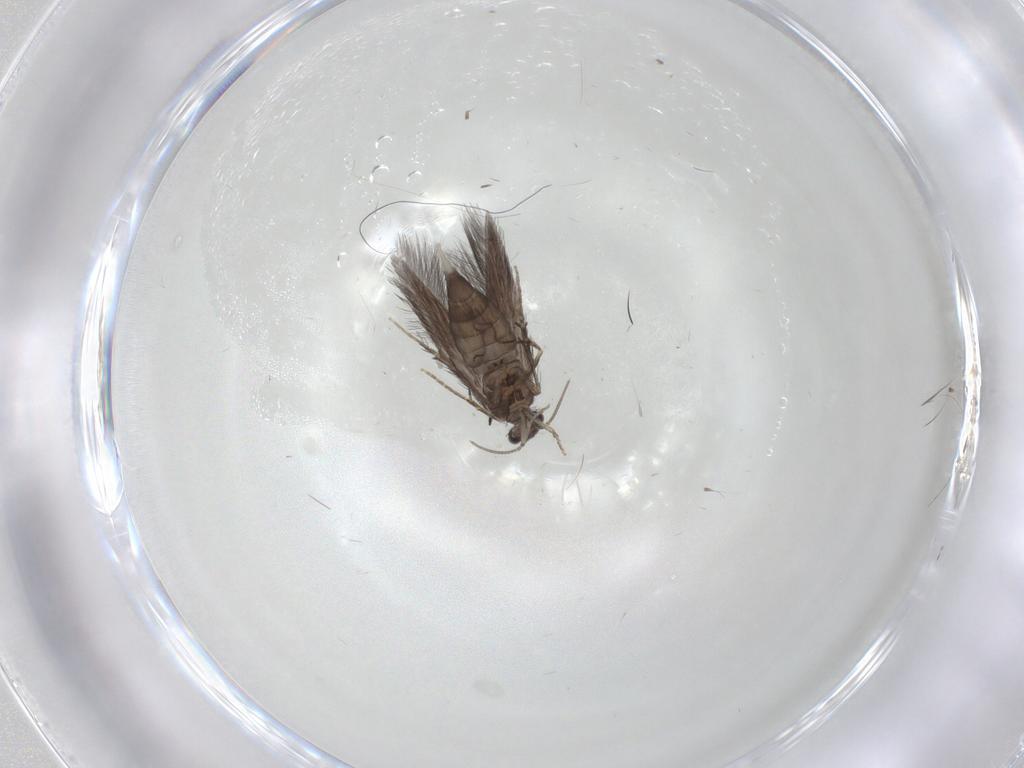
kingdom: Animalia
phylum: Arthropoda
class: Insecta
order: Trichoptera
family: Hydroptilidae
